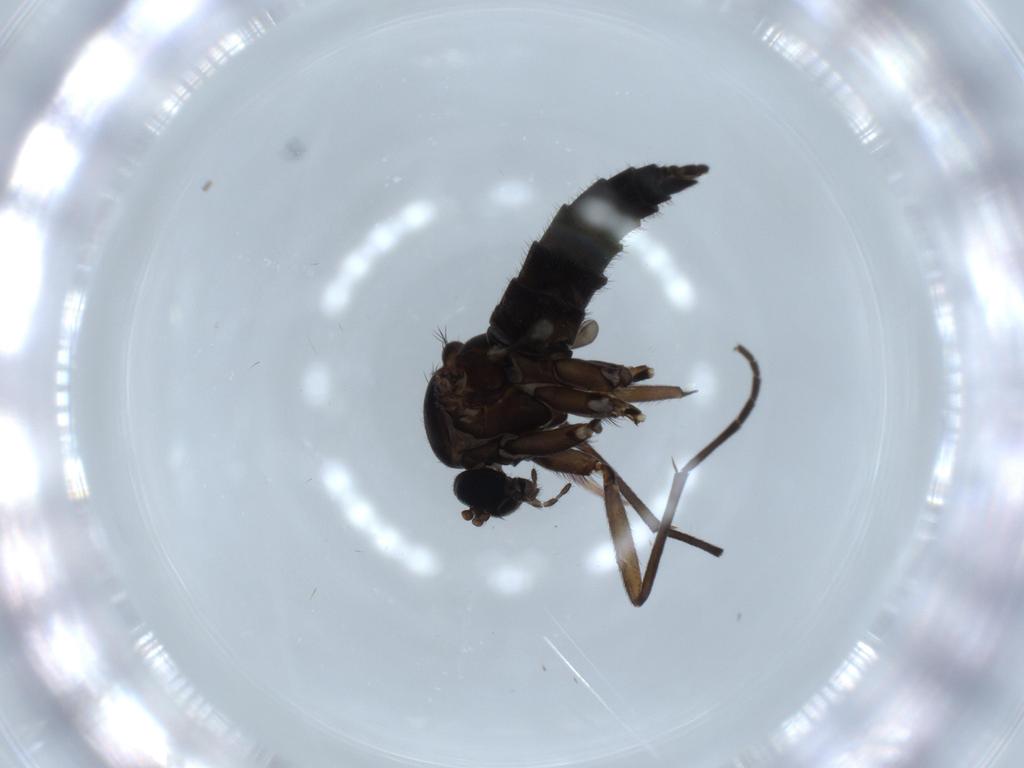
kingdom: Animalia
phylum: Arthropoda
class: Insecta
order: Diptera
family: Sciaridae
